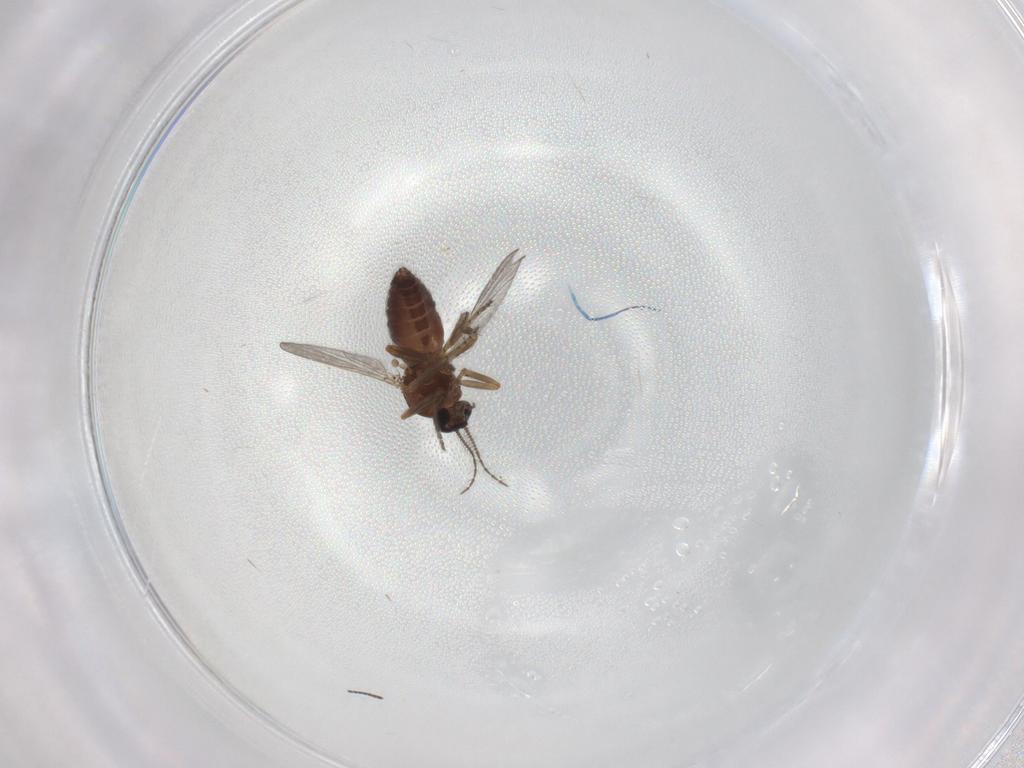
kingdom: Animalia
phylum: Arthropoda
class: Insecta
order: Diptera
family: Ceratopogonidae
